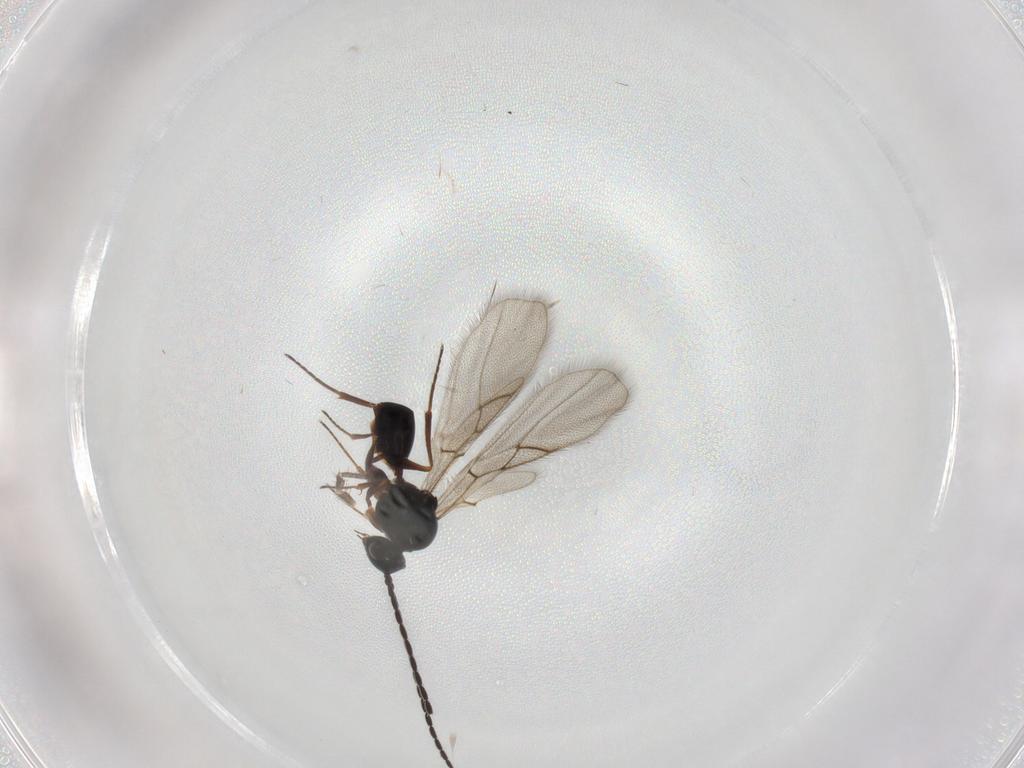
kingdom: Animalia
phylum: Arthropoda
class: Insecta
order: Hymenoptera
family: Figitidae
